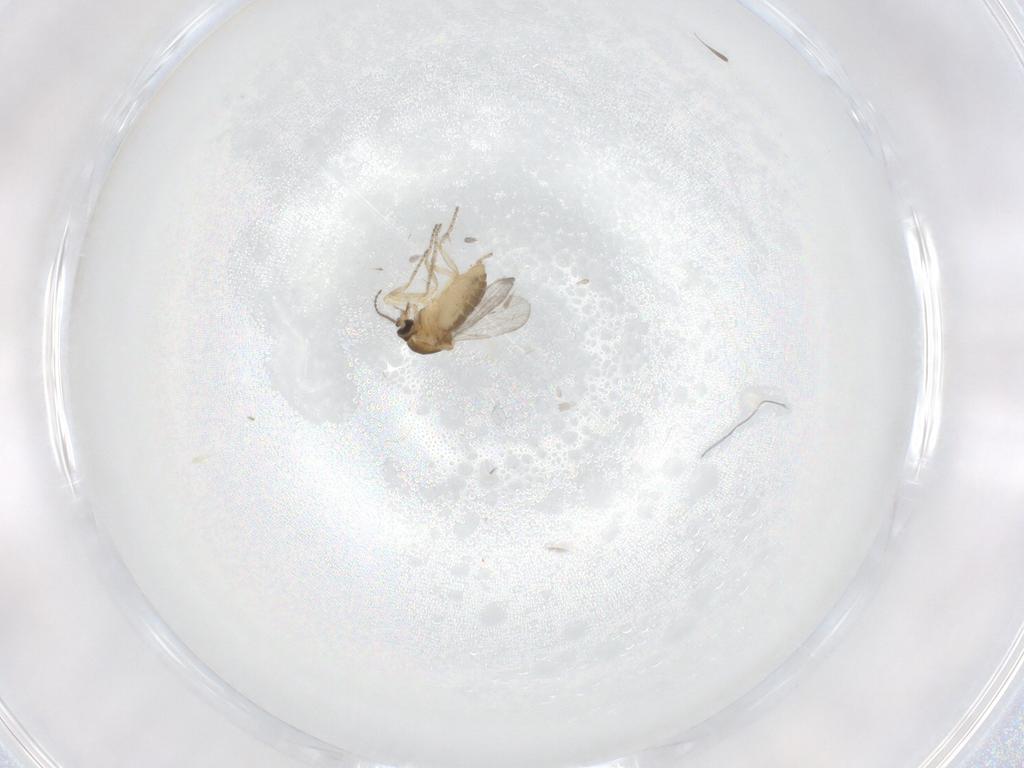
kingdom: Animalia
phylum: Arthropoda
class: Insecta
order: Diptera
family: Ceratopogonidae
